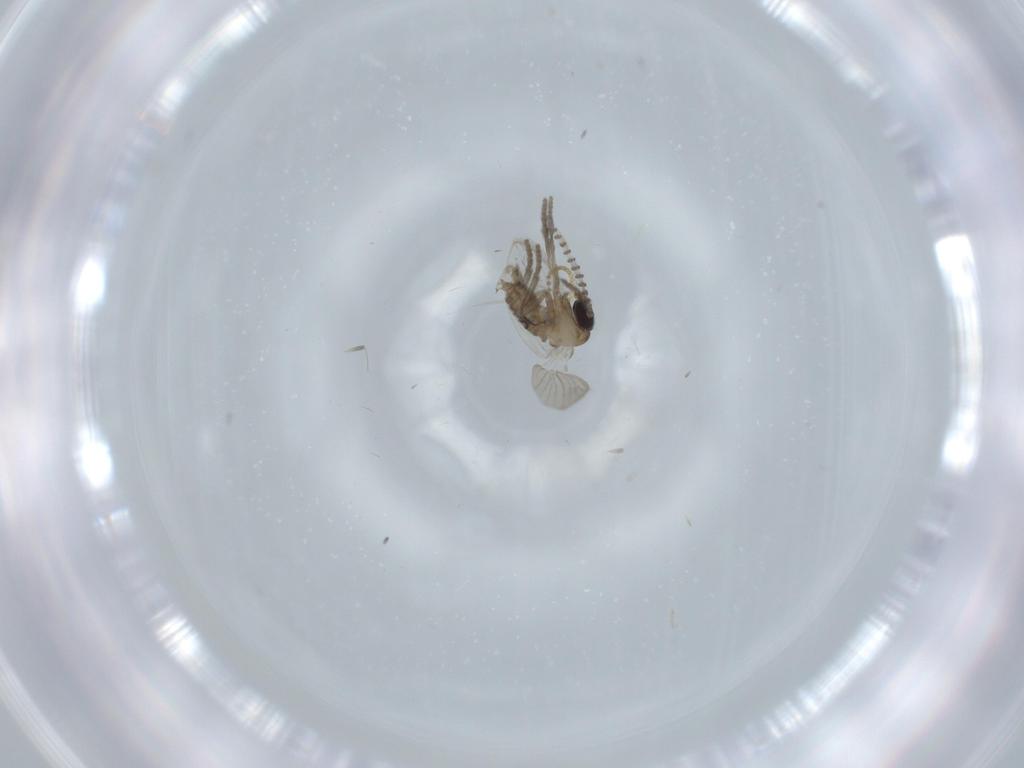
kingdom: Animalia
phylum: Arthropoda
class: Insecta
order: Diptera
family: Psychodidae
